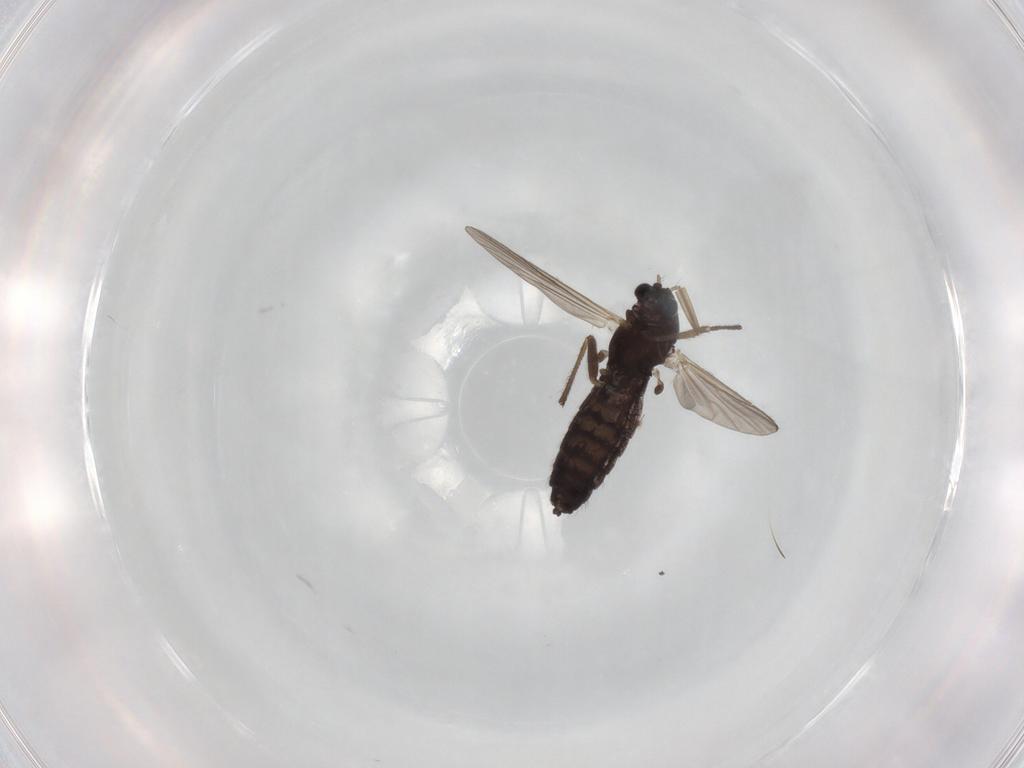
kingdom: Animalia
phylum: Arthropoda
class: Insecta
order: Diptera
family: Chironomidae
